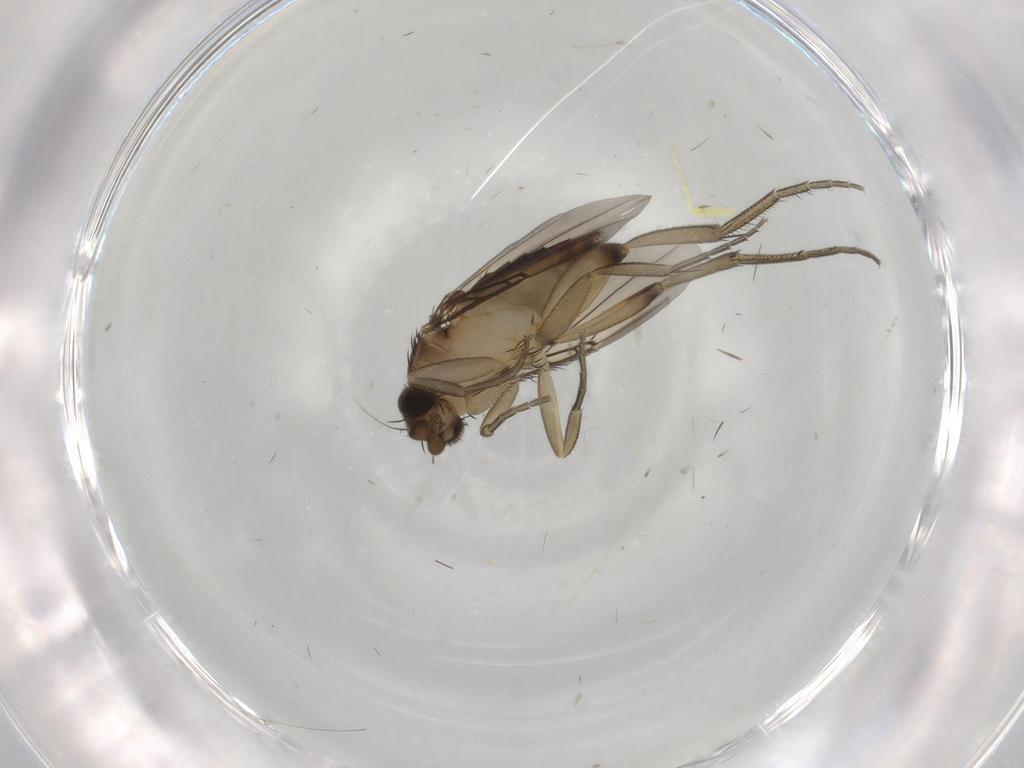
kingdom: Animalia
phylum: Arthropoda
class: Insecta
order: Diptera
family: Phoridae
